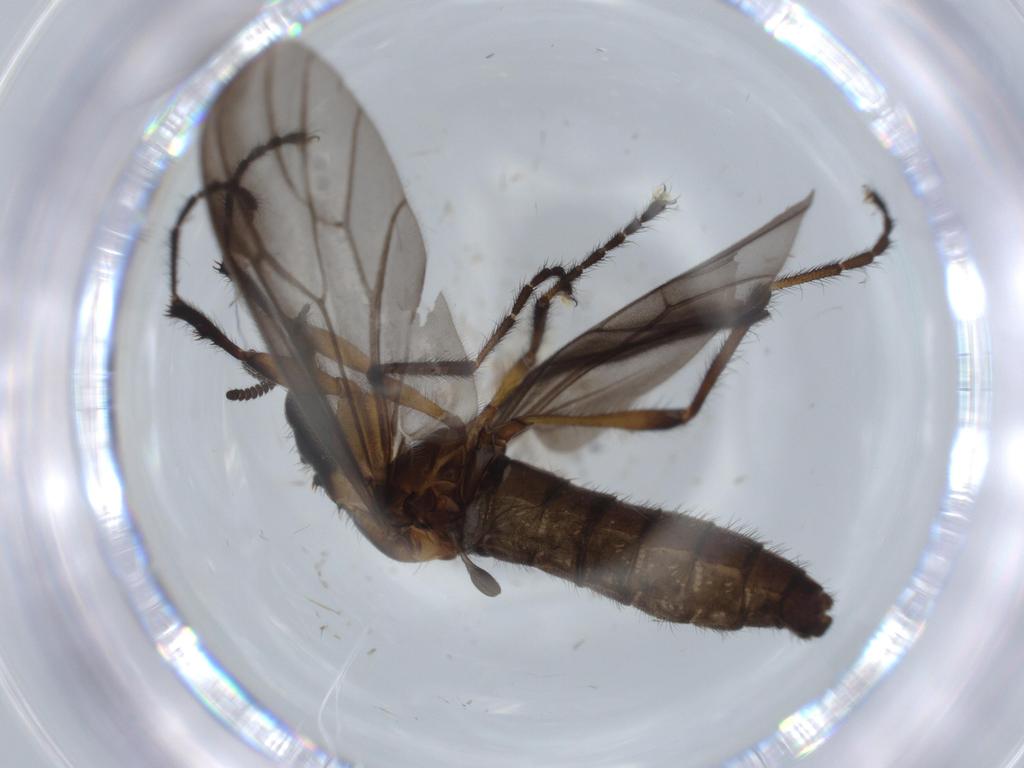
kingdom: Animalia
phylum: Arthropoda
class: Insecta
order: Diptera
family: Bibionidae
